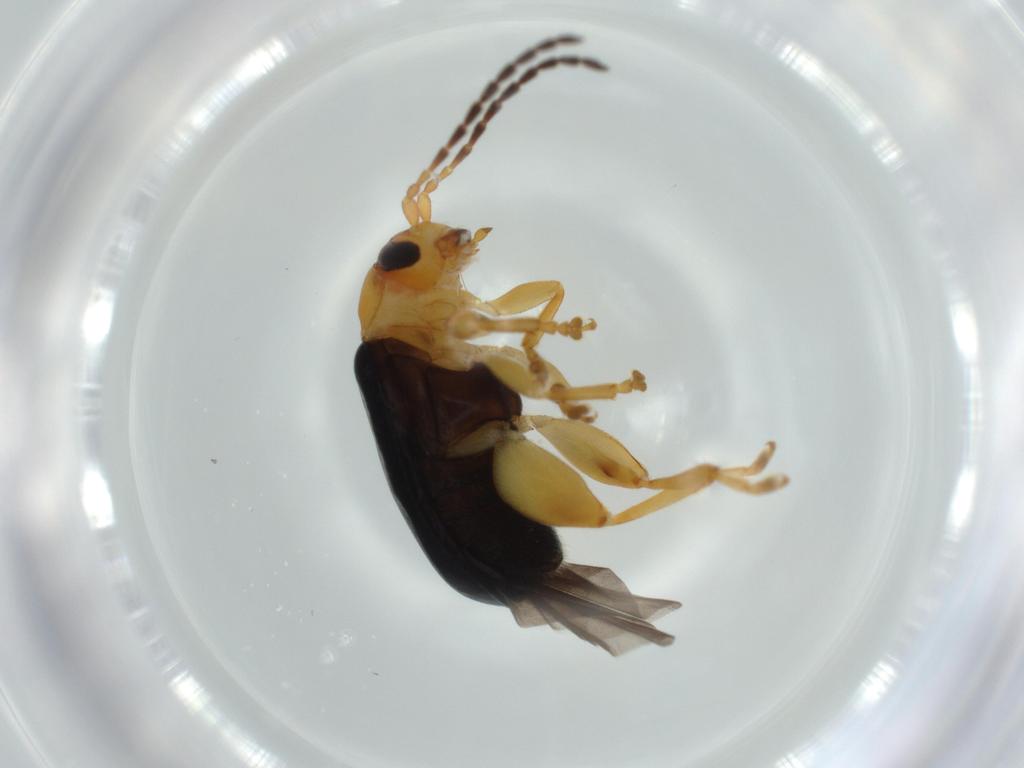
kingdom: Animalia
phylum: Arthropoda
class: Insecta
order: Coleoptera
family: Chrysomelidae
